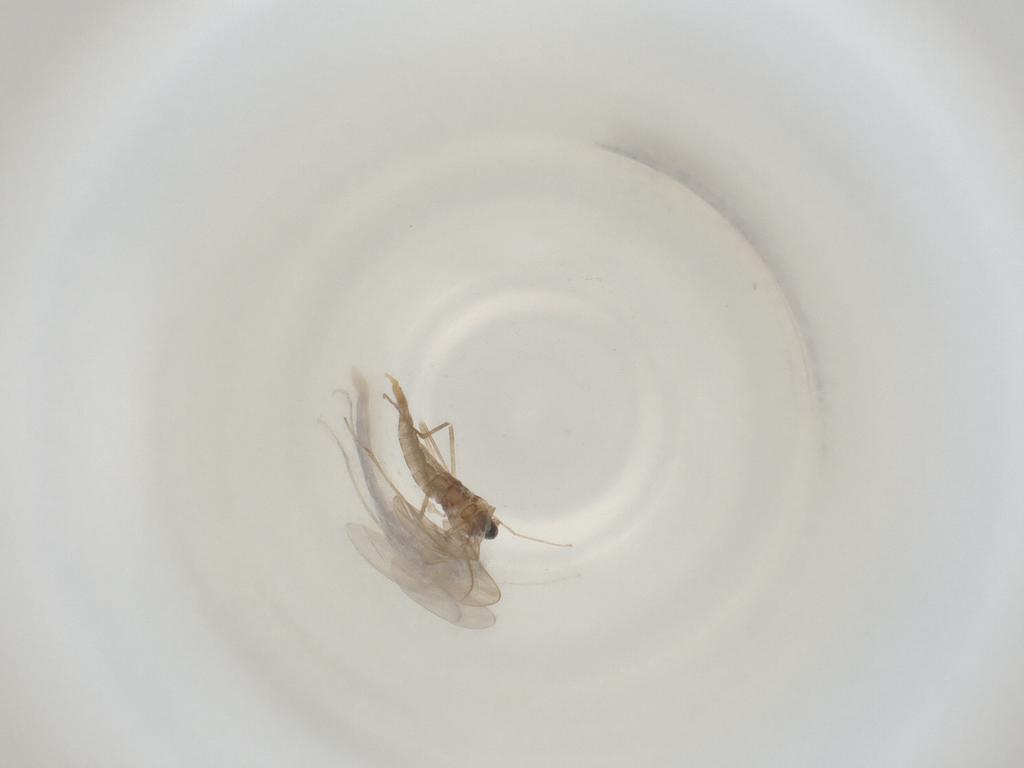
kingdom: Animalia
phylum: Arthropoda
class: Insecta
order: Diptera
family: Cecidomyiidae
